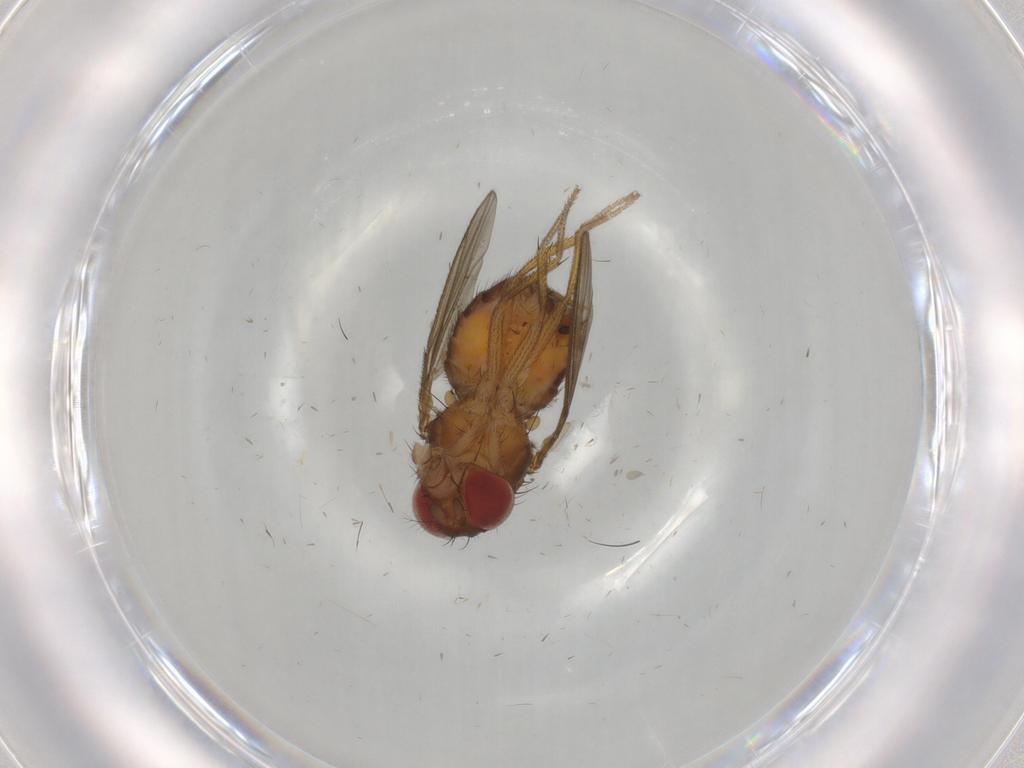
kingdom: Animalia
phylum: Arthropoda
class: Insecta
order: Diptera
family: Drosophilidae
